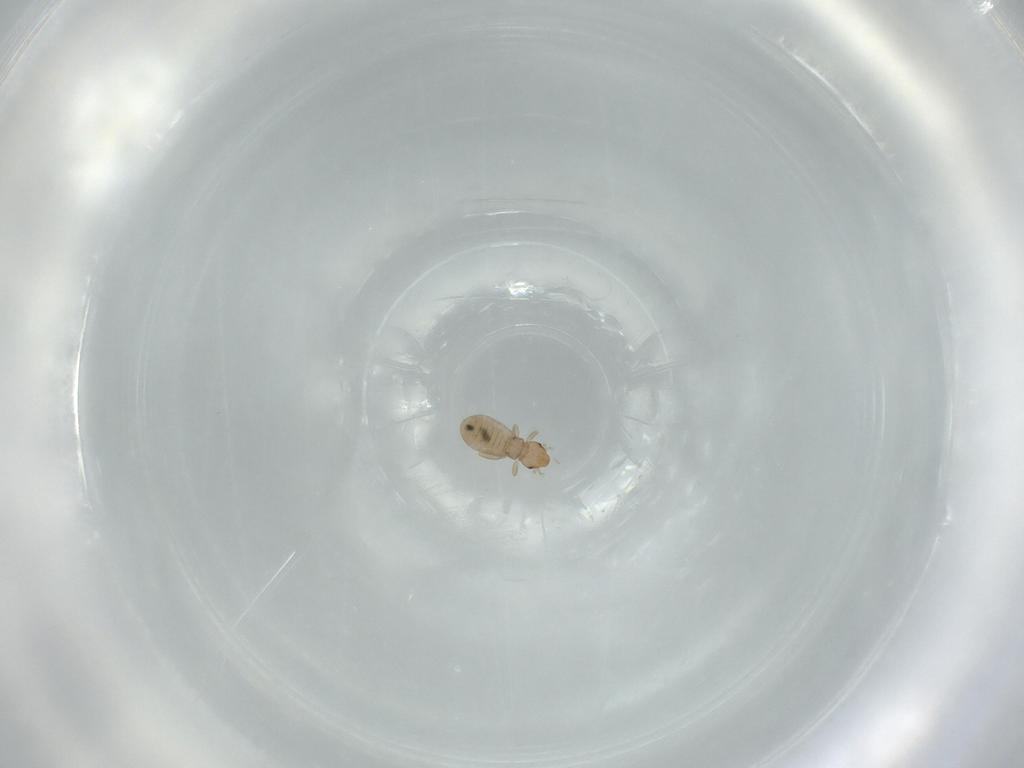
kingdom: Animalia
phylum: Arthropoda
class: Insecta
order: Psocodea
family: Liposcelididae
